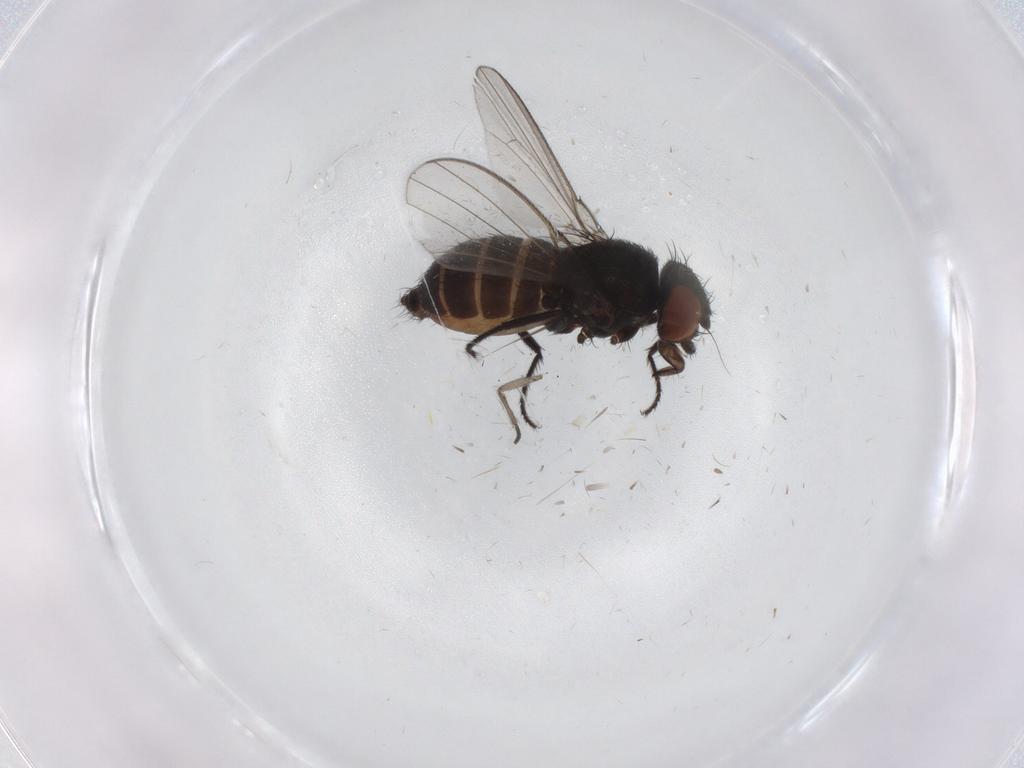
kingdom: Animalia
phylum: Arthropoda
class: Insecta
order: Diptera
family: Milichiidae
